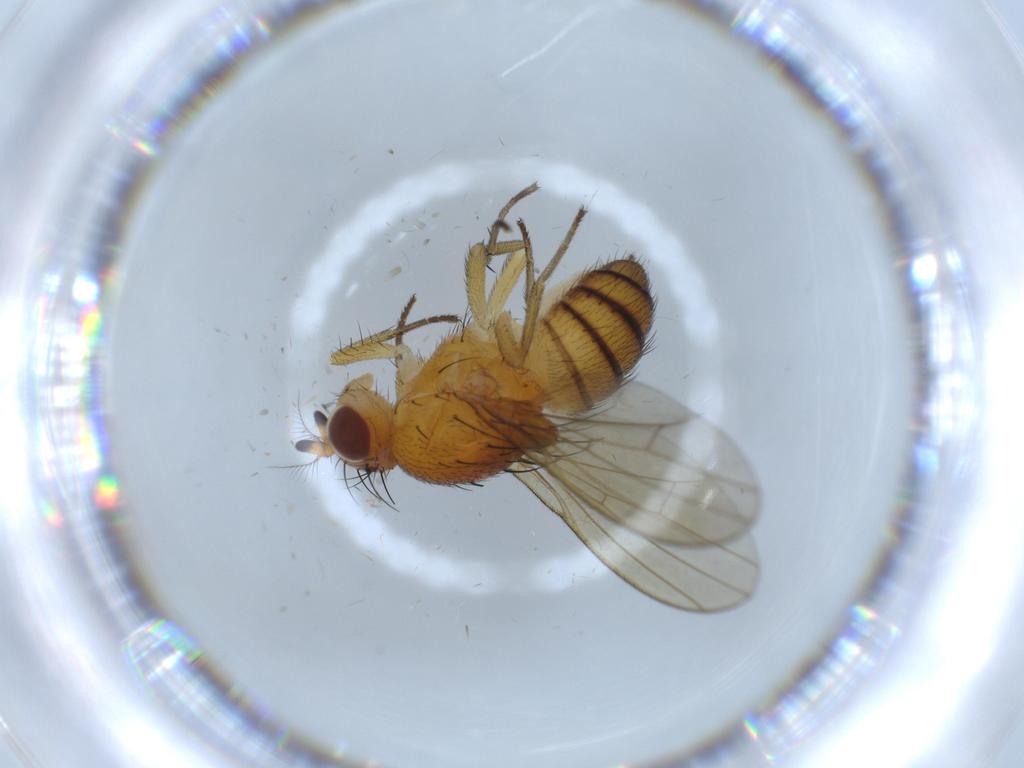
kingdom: Animalia
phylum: Arthropoda
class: Insecta
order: Diptera
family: Lauxaniidae
